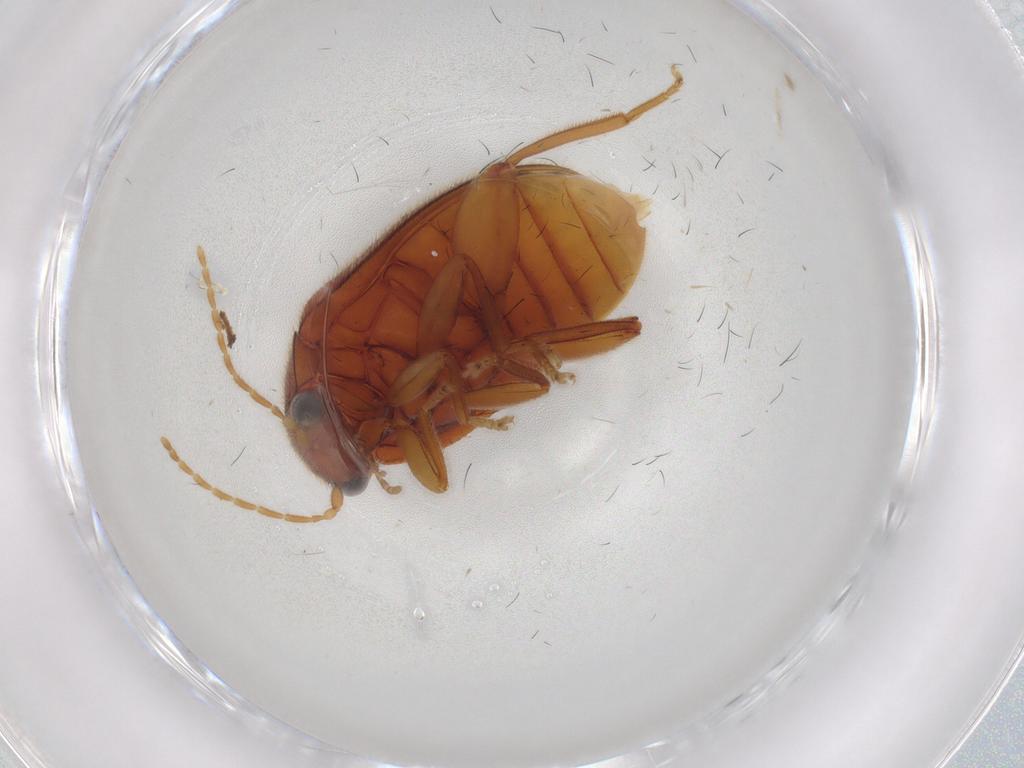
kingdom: Animalia
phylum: Arthropoda
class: Insecta
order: Coleoptera
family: Scirtidae
